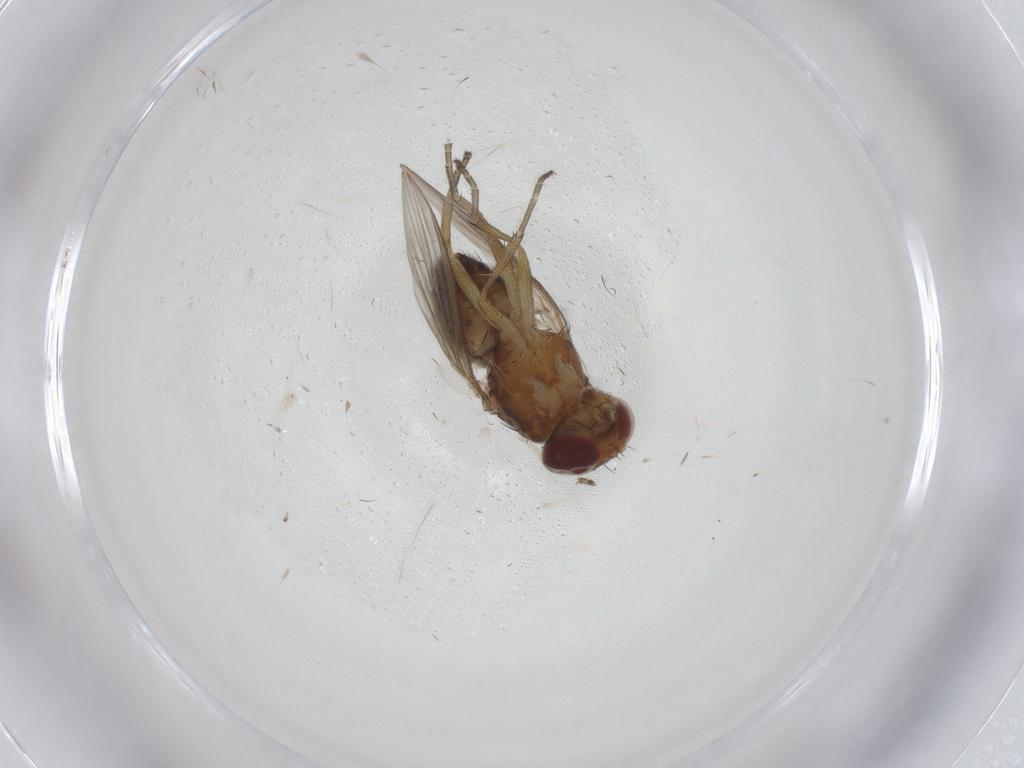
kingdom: Animalia
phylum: Arthropoda
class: Insecta
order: Diptera
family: Heleomyzidae
